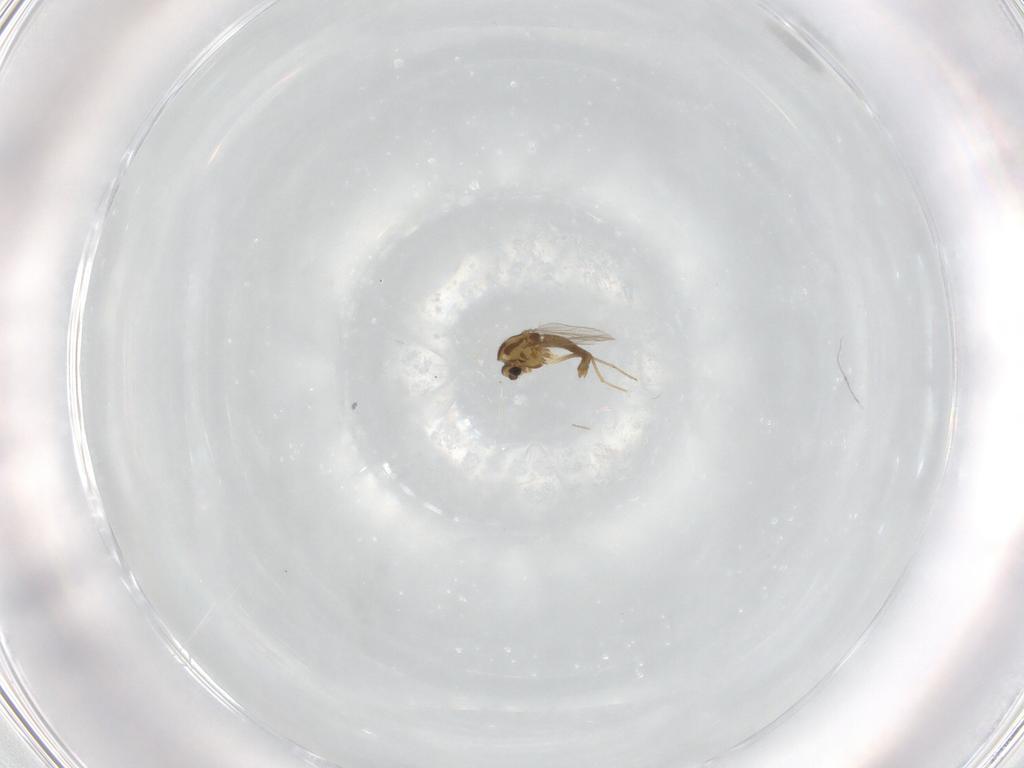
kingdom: Animalia
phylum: Arthropoda
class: Insecta
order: Diptera
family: Chironomidae
